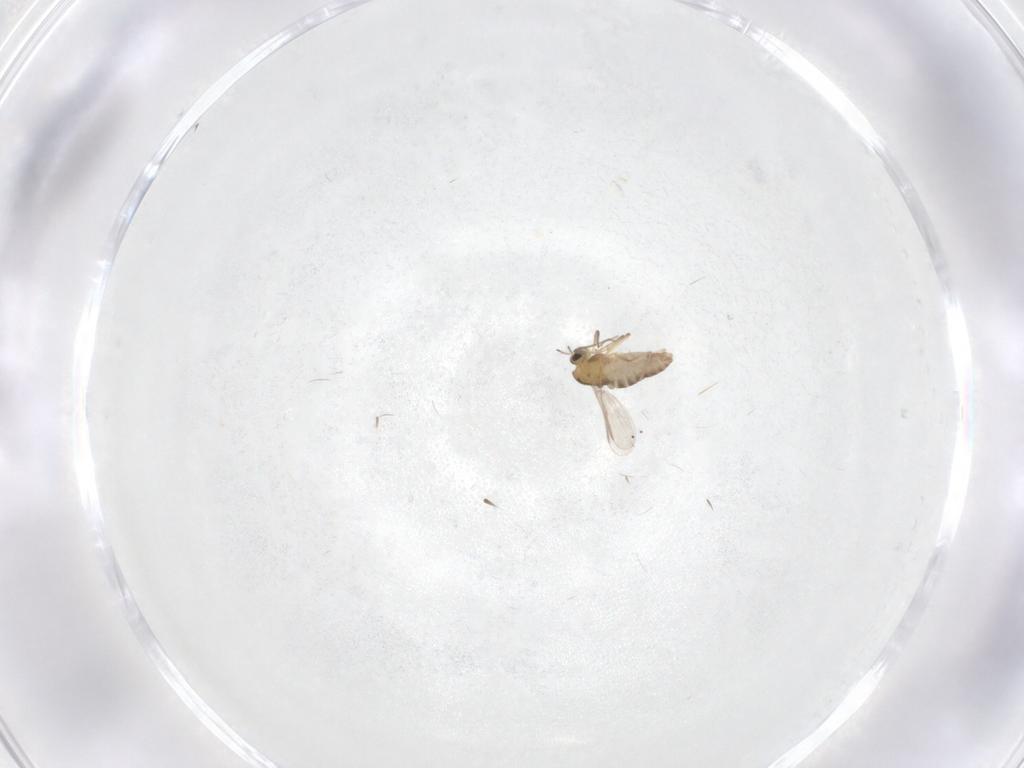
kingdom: Animalia
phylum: Arthropoda
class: Insecta
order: Diptera
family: Chironomidae
